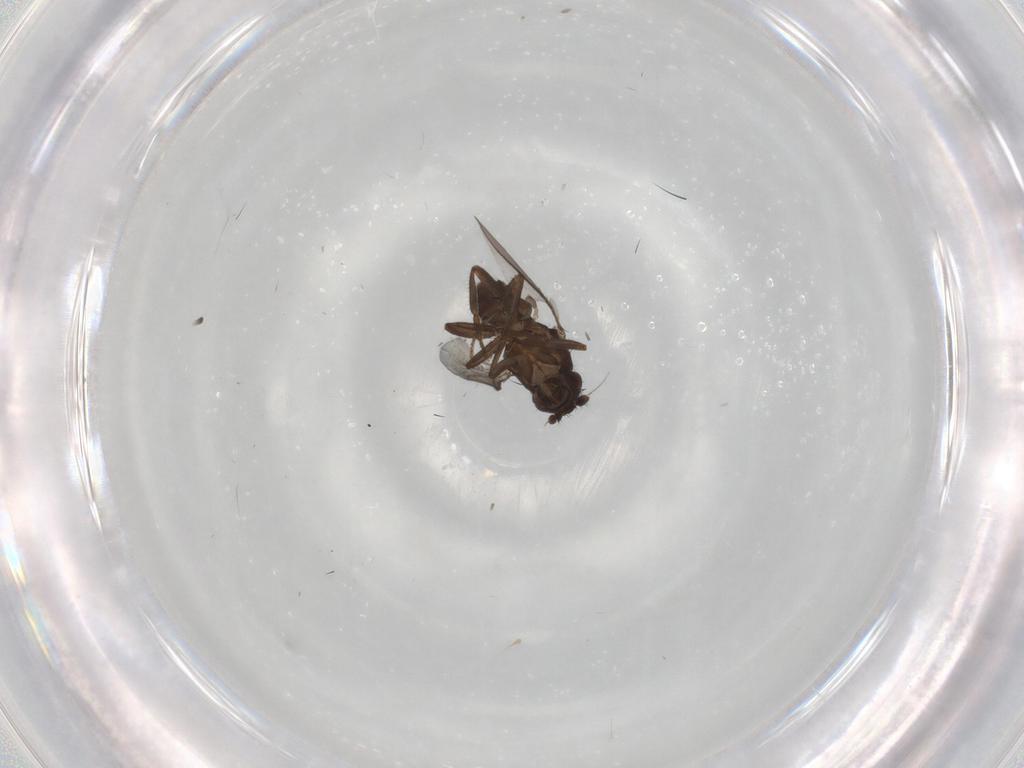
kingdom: Animalia
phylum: Arthropoda
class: Insecta
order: Diptera
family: Sphaeroceridae
